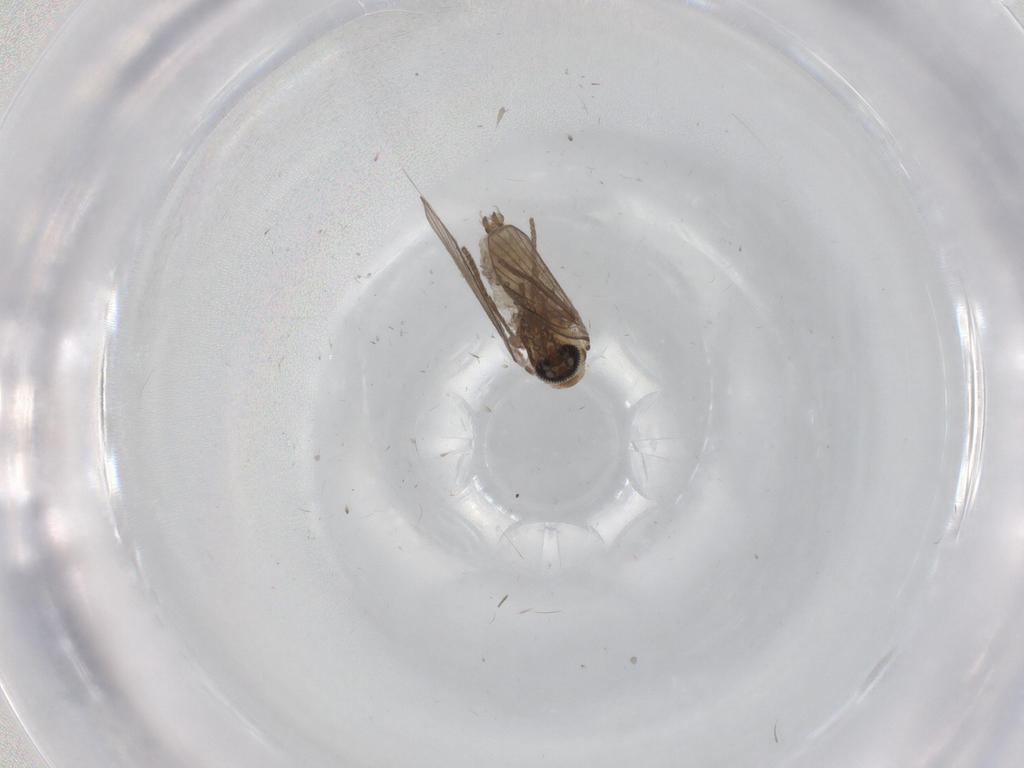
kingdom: Animalia
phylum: Arthropoda
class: Insecta
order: Diptera
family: Psychodidae
